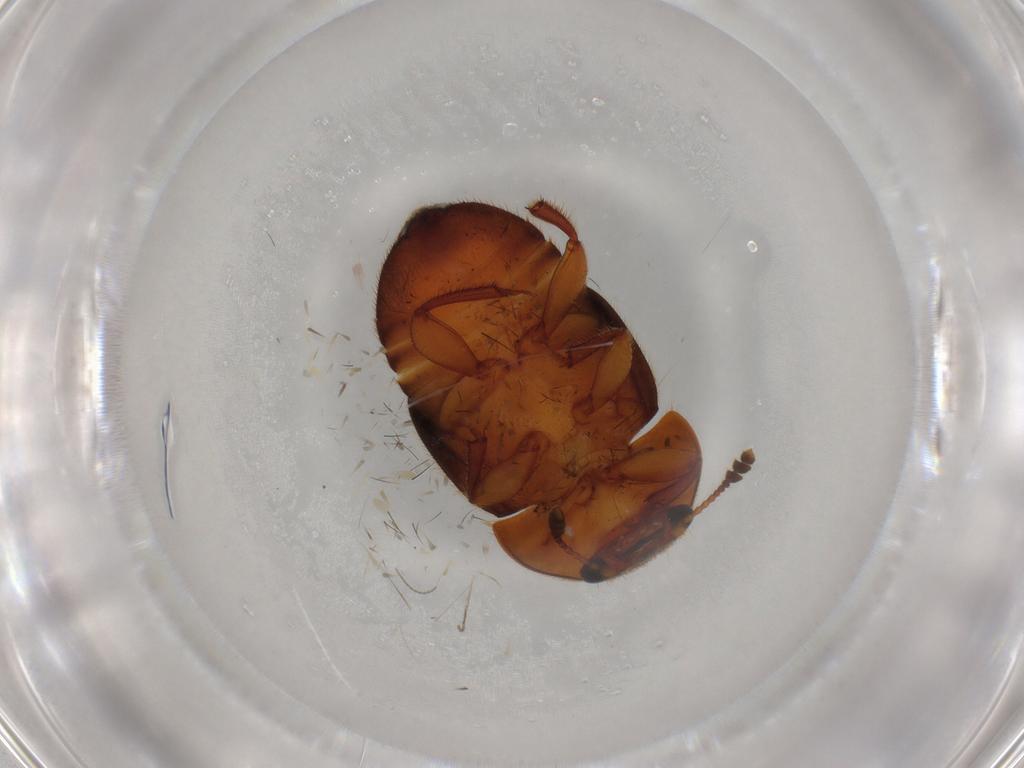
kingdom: Animalia
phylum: Arthropoda
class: Insecta
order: Coleoptera
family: Nitidulidae
